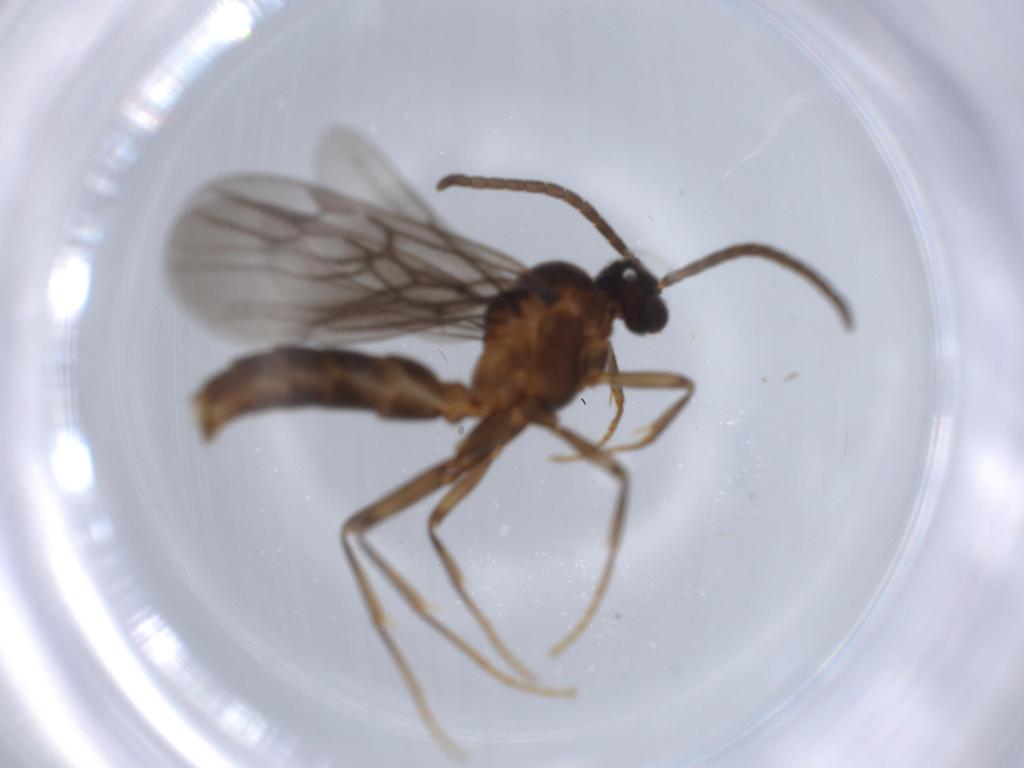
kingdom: Animalia
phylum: Arthropoda
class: Insecta
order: Hymenoptera
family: Formicidae
